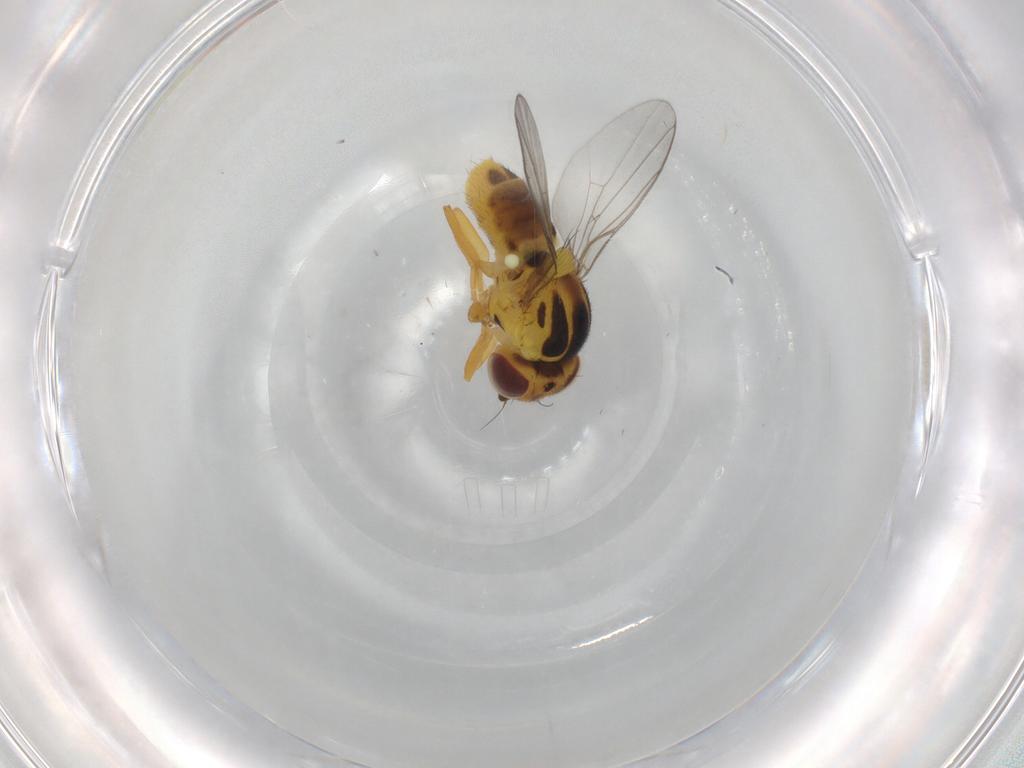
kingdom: Animalia
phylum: Arthropoda
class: Insecta
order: Diptera
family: Chloropidae
